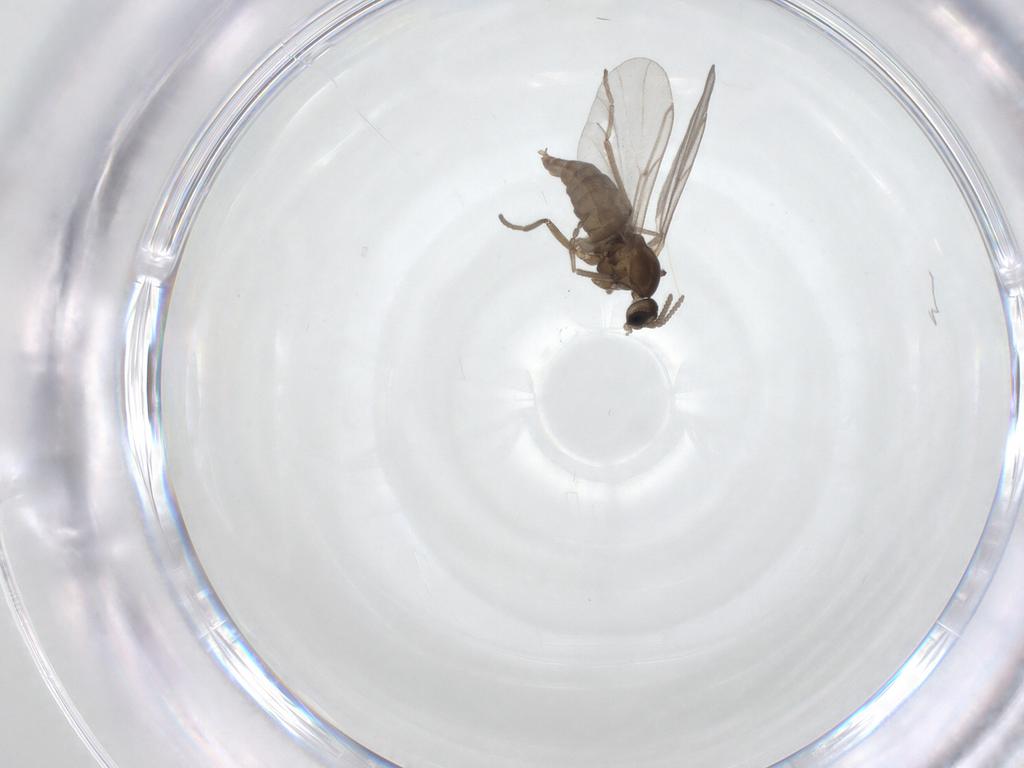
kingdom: Animalia
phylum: Arthropoda
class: Insecta
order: Diptera
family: Cecidomyiidae
